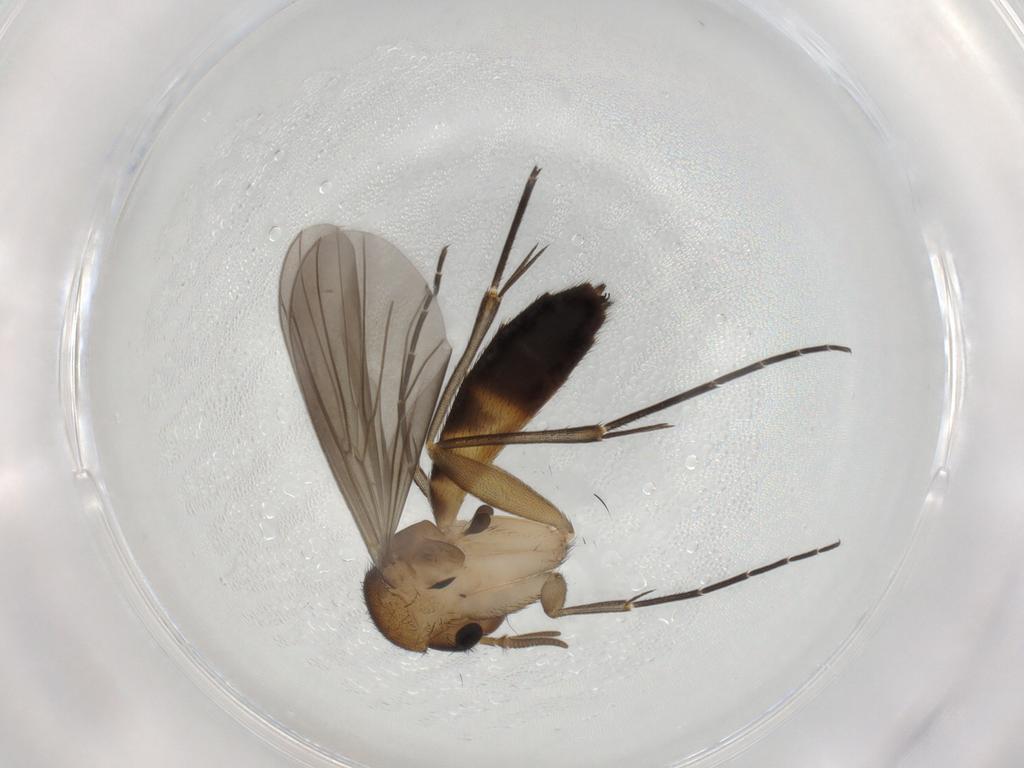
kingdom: Animalia
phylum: Arthropoda
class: Insecta
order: Diptera
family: Mycetophilidae
